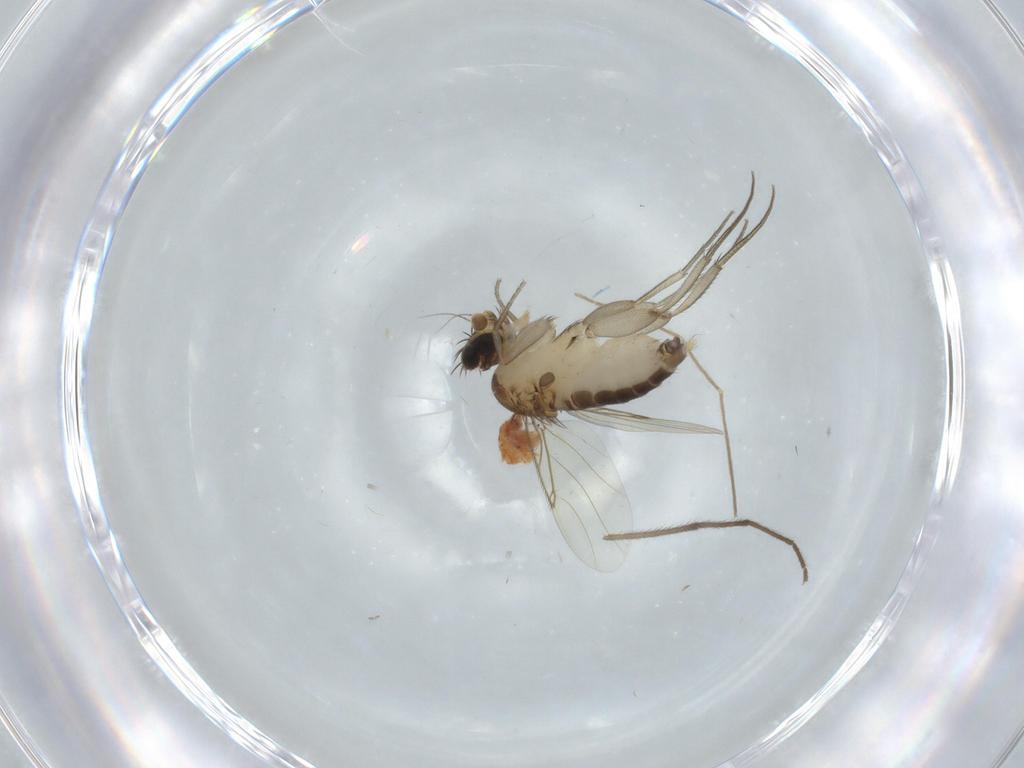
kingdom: Animalia
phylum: Arthropoda
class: Insecta
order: Diptera
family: Phoridae
